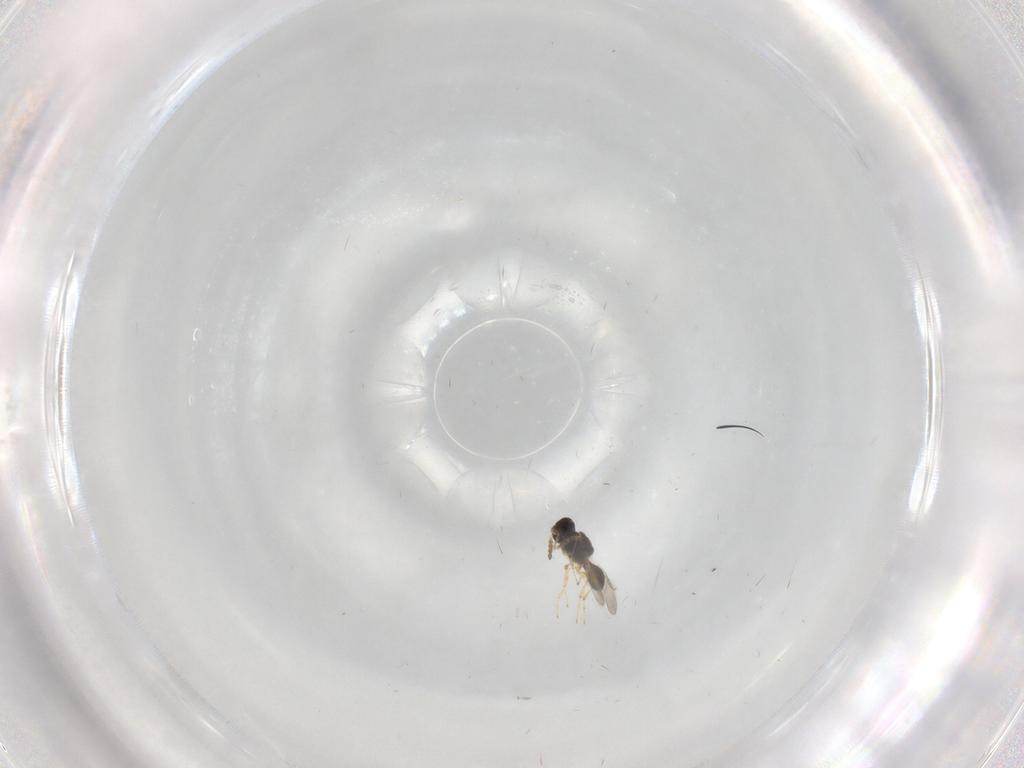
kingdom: Animalia
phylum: Arthropoda
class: Insecta
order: Hymenoptera
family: Platygastridae
